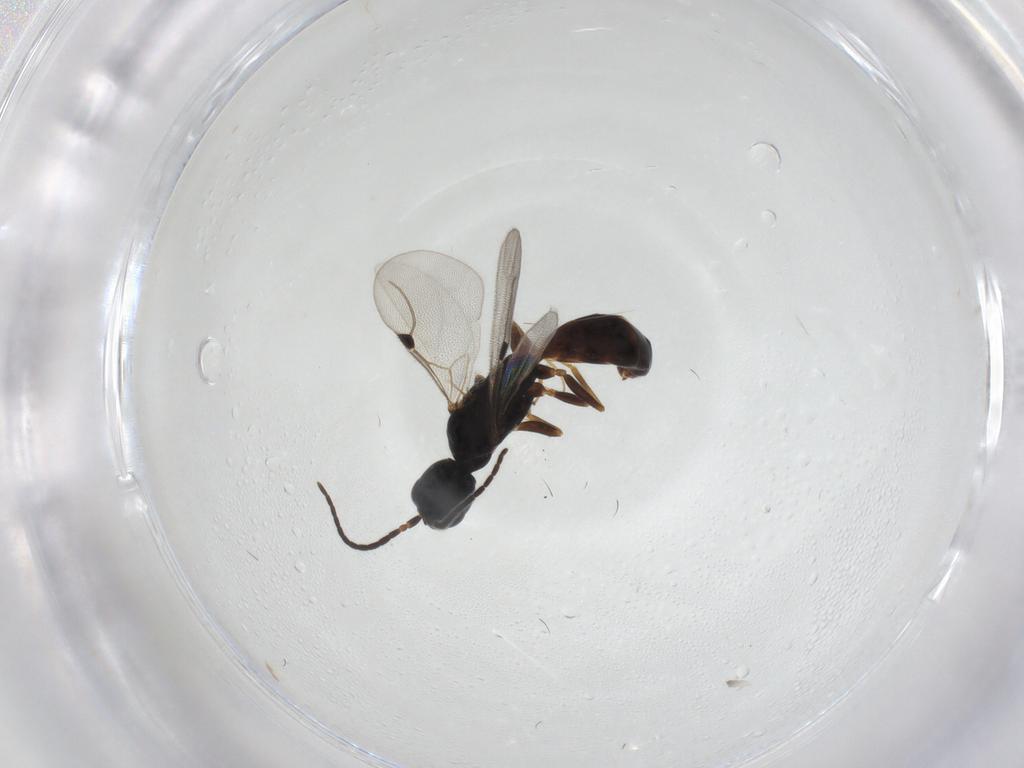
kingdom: Animalia
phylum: Arthropoda
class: Insecta
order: Hymenoptera
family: Bethylidae
